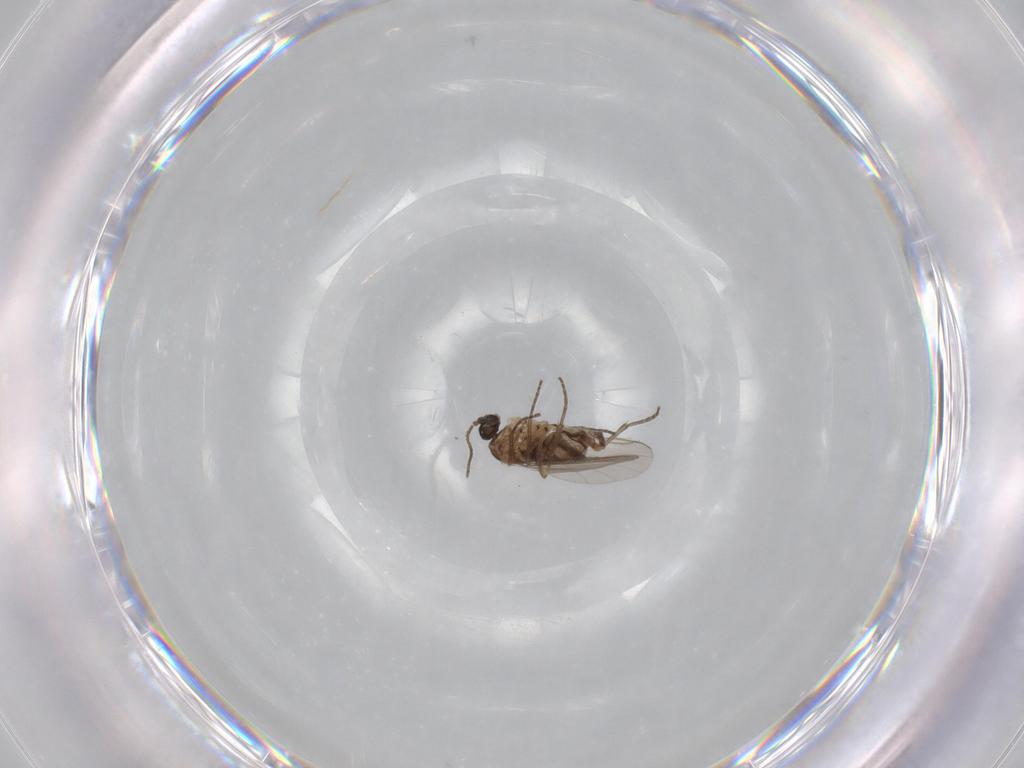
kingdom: Animalia
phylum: Arthropoda
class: Insecta
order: Diptera
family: Sciaridae
